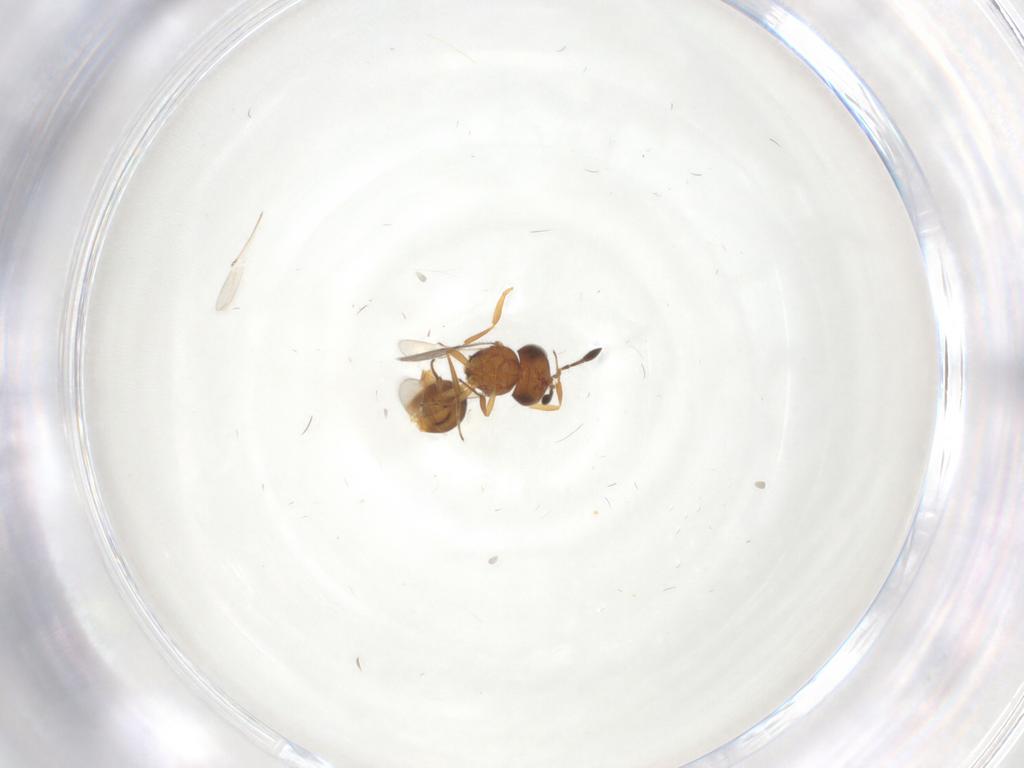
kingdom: Animalia
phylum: Arthropoda
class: Insecta
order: Hymenoptera
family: Scelionidae
